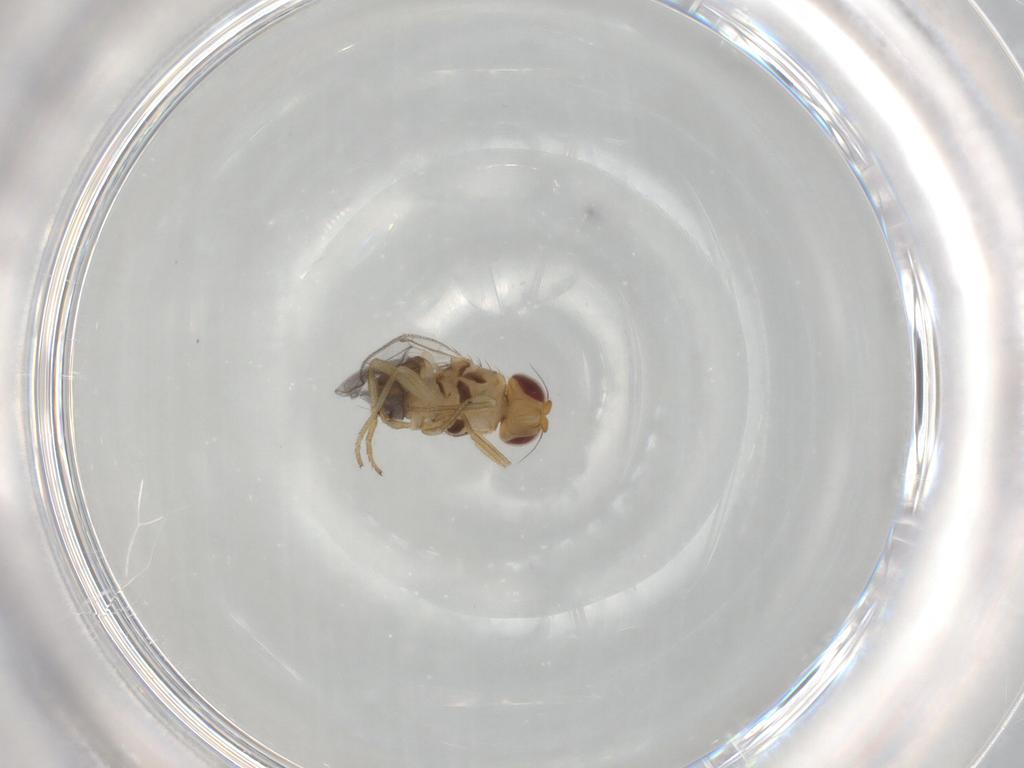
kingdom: Animalia
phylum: Arthropoda
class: Insecta
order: Diptera
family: Chloropidae
